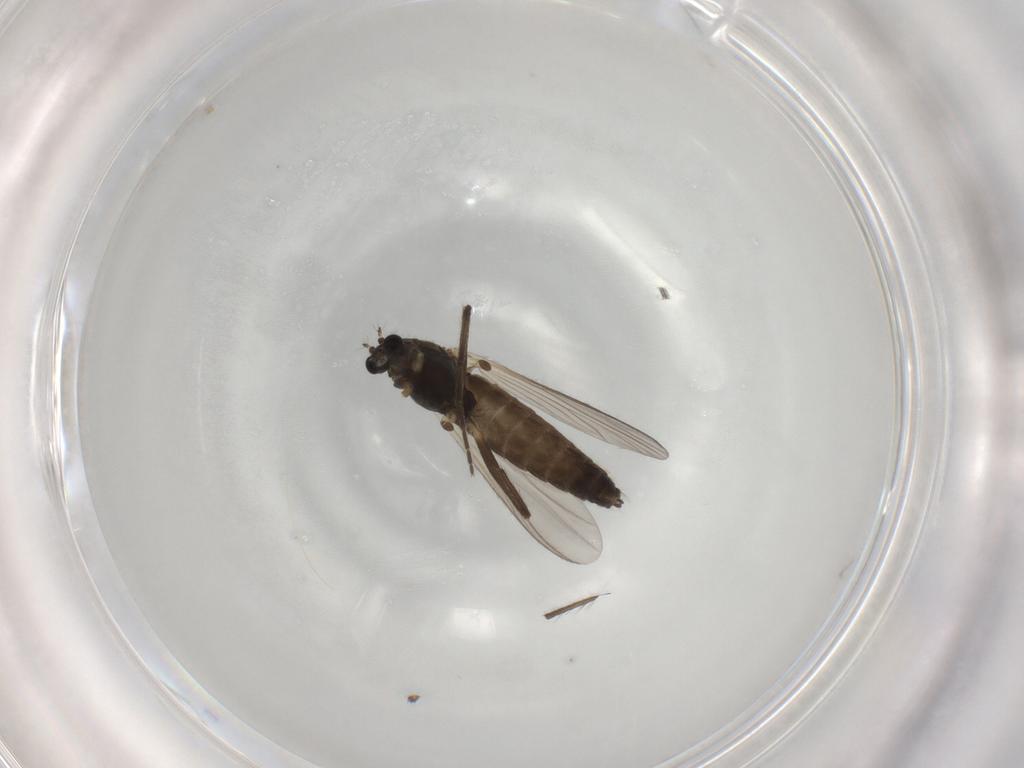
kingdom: Animalia
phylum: Arthropoda
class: Insecta
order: Diptera
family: Chironomidae
